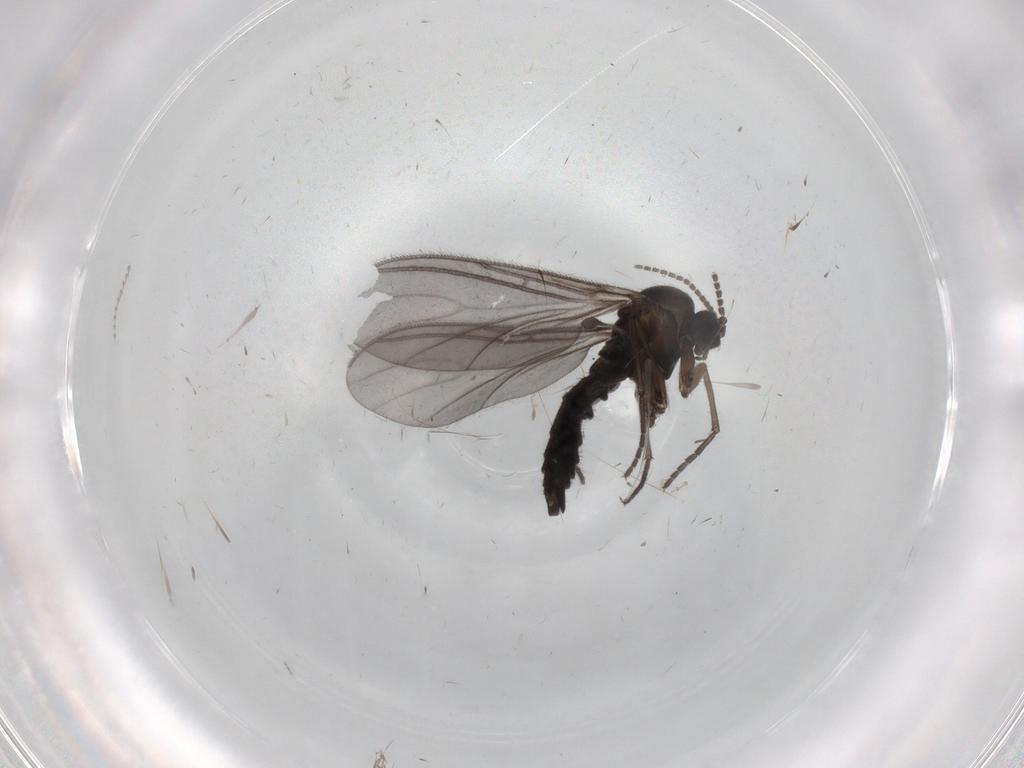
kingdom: Animalia
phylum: Arthropoda
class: Insecta
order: Diptera
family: Sciaridae
